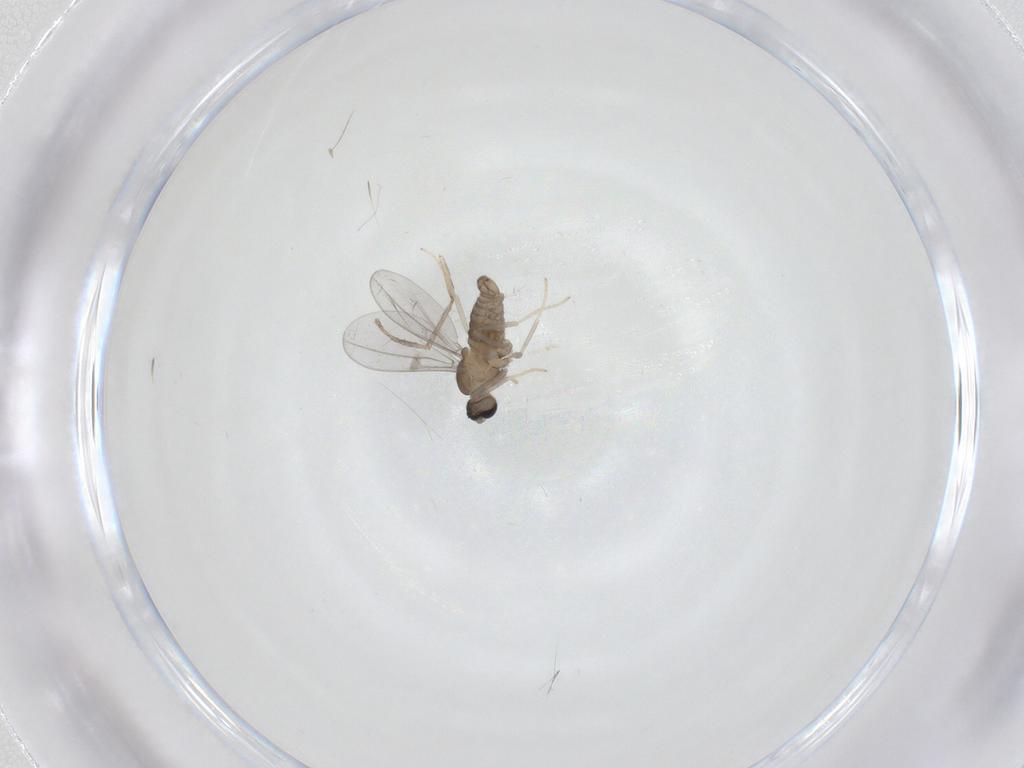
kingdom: Animalia
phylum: Arthropoda
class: Insecta
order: Diptera
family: Cecidomyiidae
